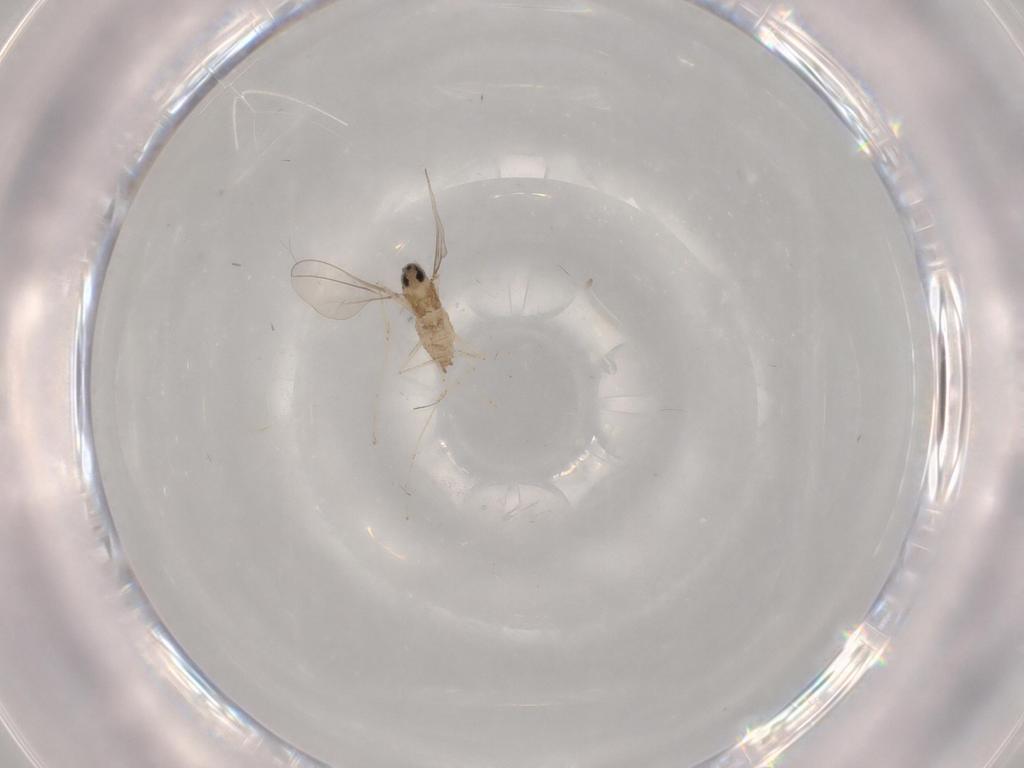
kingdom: Animalia
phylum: Arthropoda
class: Insecta
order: Diptera
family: Cecidomyiidae
